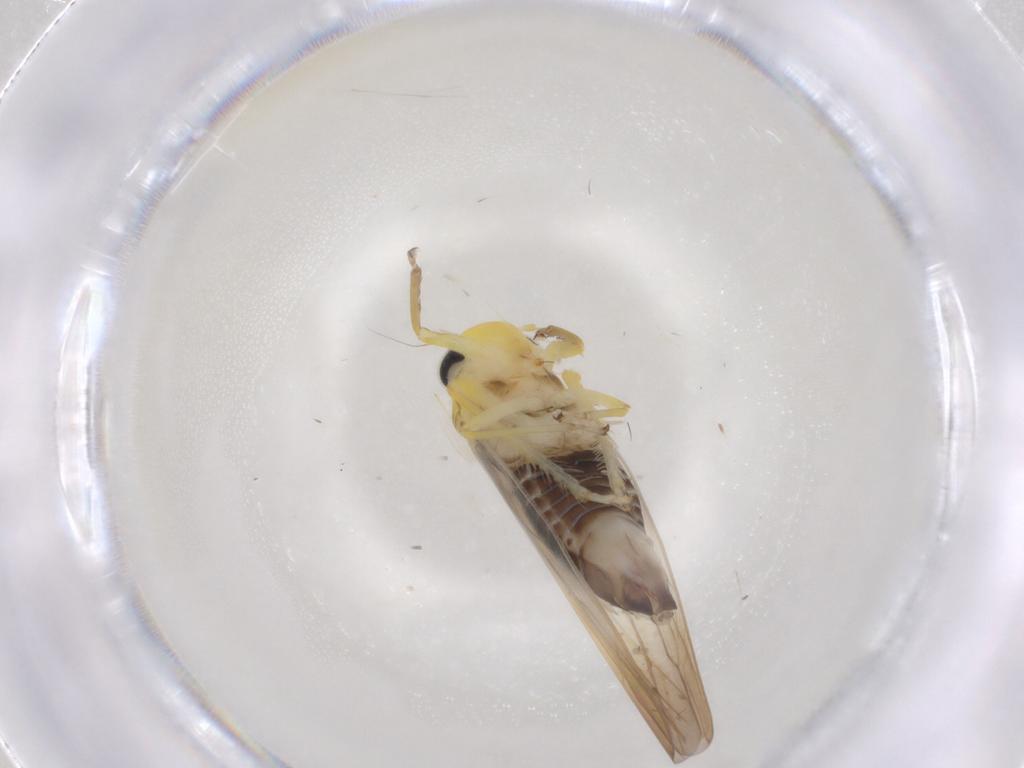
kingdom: Animalia
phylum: Arthropoda
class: Insecta
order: Hemiptera
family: Cicadellidae
